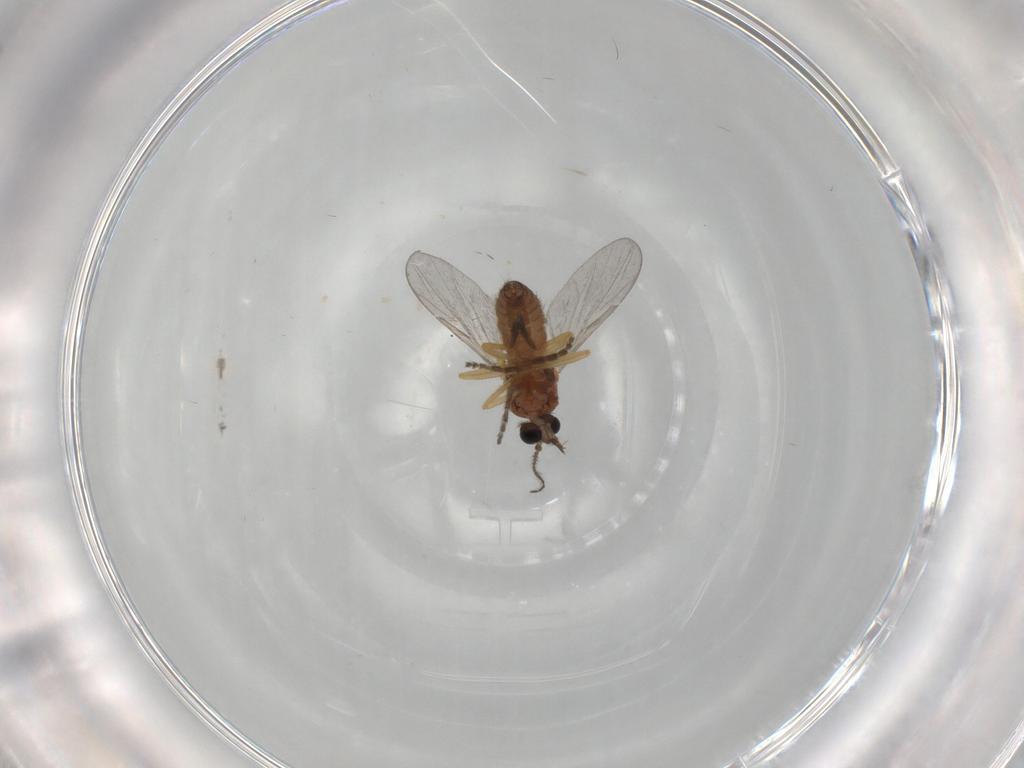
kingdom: Animalia
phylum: Arthropoda
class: Insecta
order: Diptera
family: Ceratopogonidae
